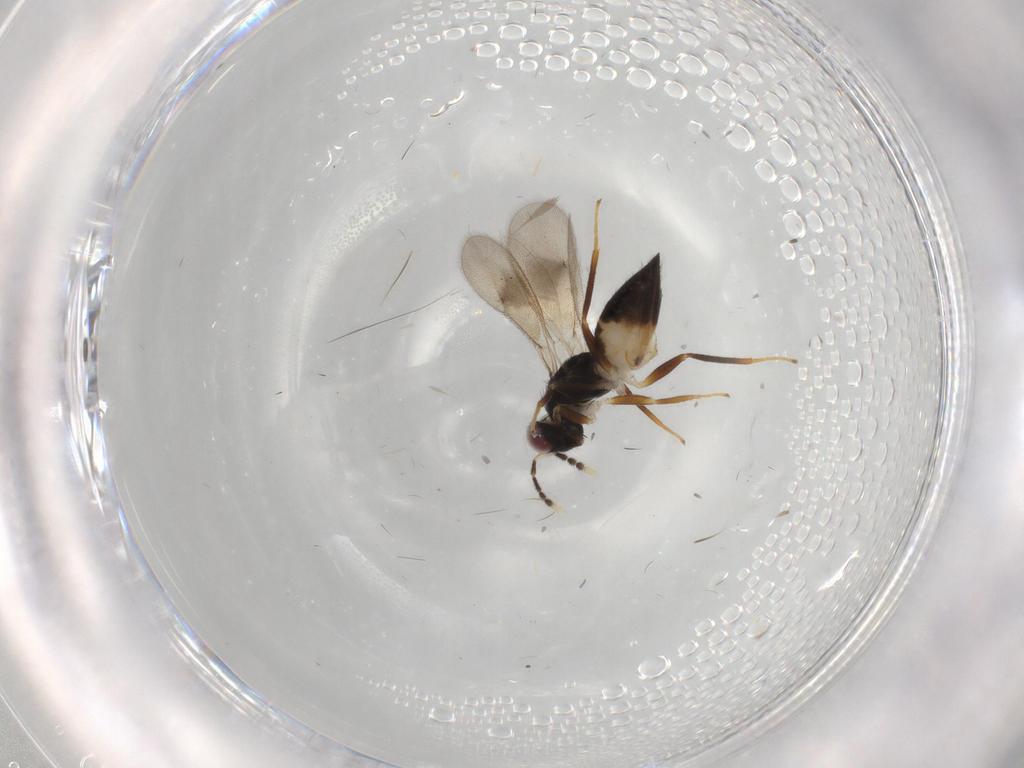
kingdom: Animalia
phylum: Arthropoda
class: Insecta
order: Hymenoptera
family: Eulophidae
